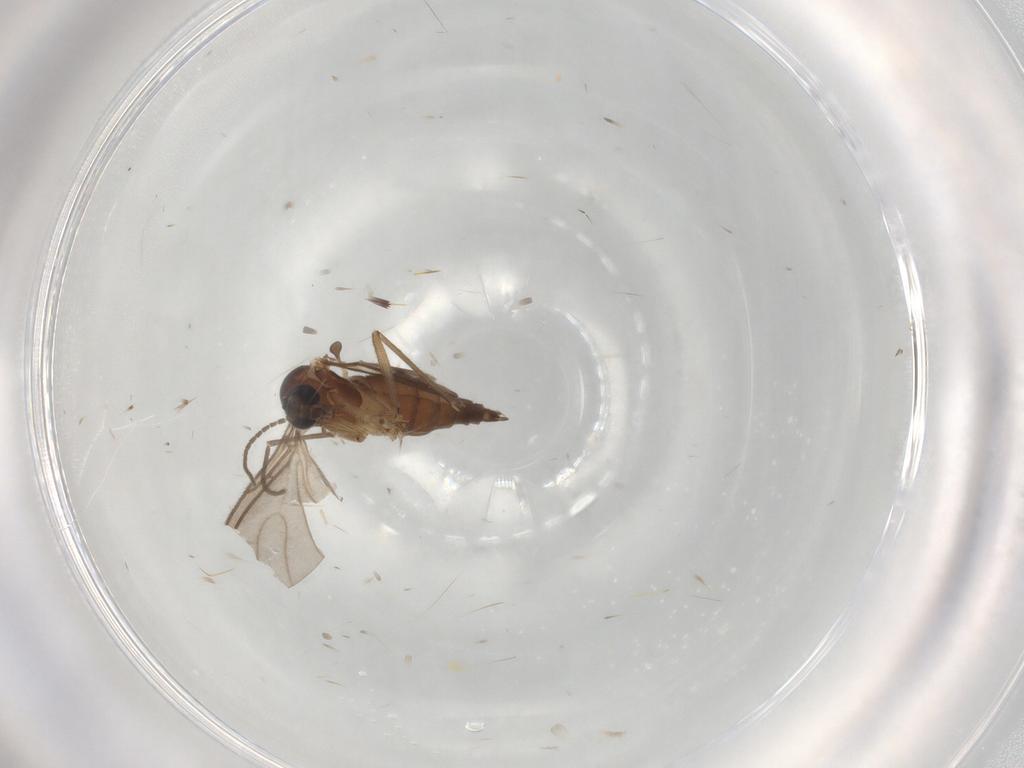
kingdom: Animalia
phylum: Arthropoda
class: Insecta
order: Diptera
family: Sciaridae
